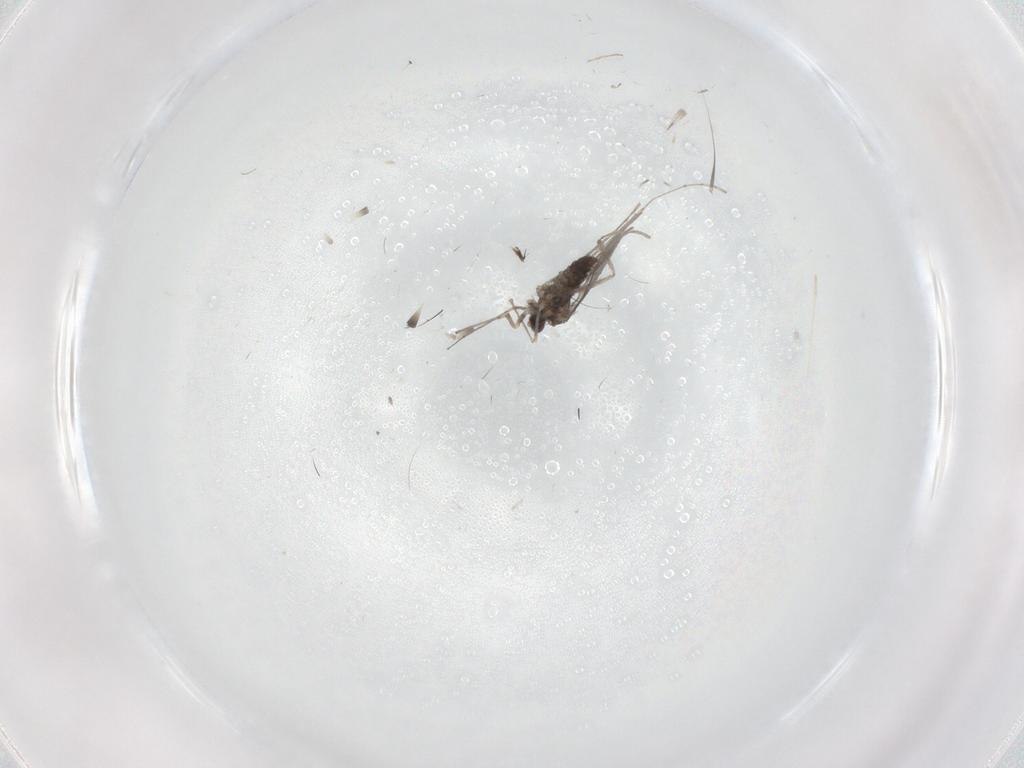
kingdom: Animalia
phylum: Arthropoda
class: Insecta
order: Diptera
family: Cecidomyiidae
